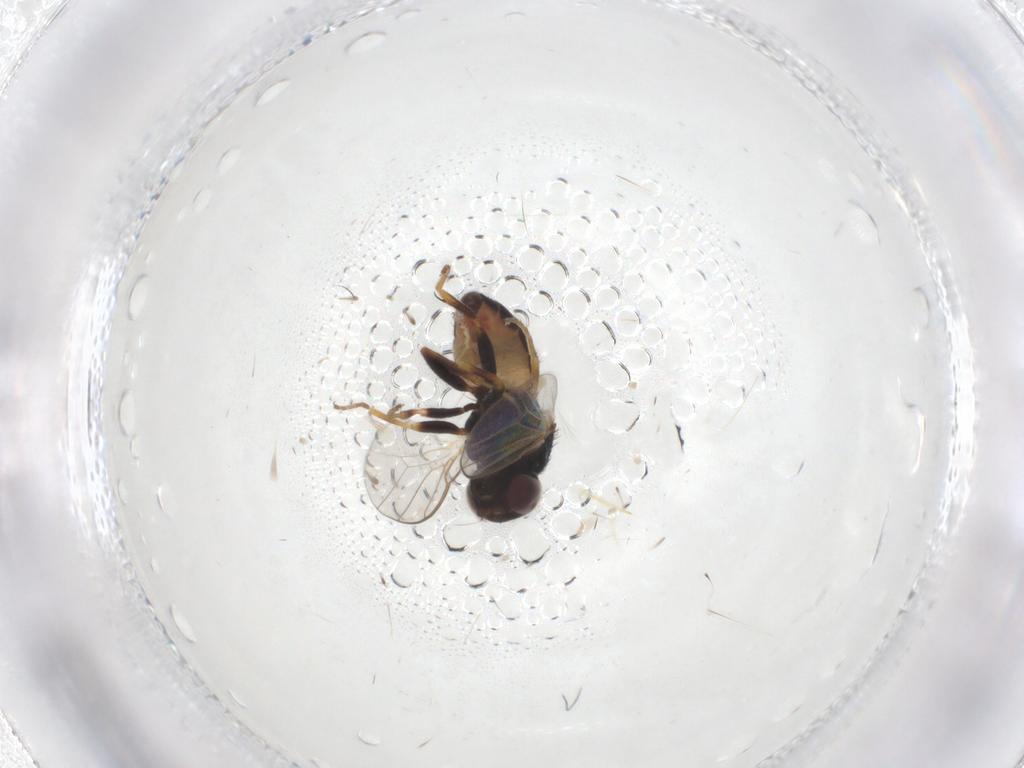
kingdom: Animalia
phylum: Arthropoda
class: Insecta
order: Diptera
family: Chloropidae
